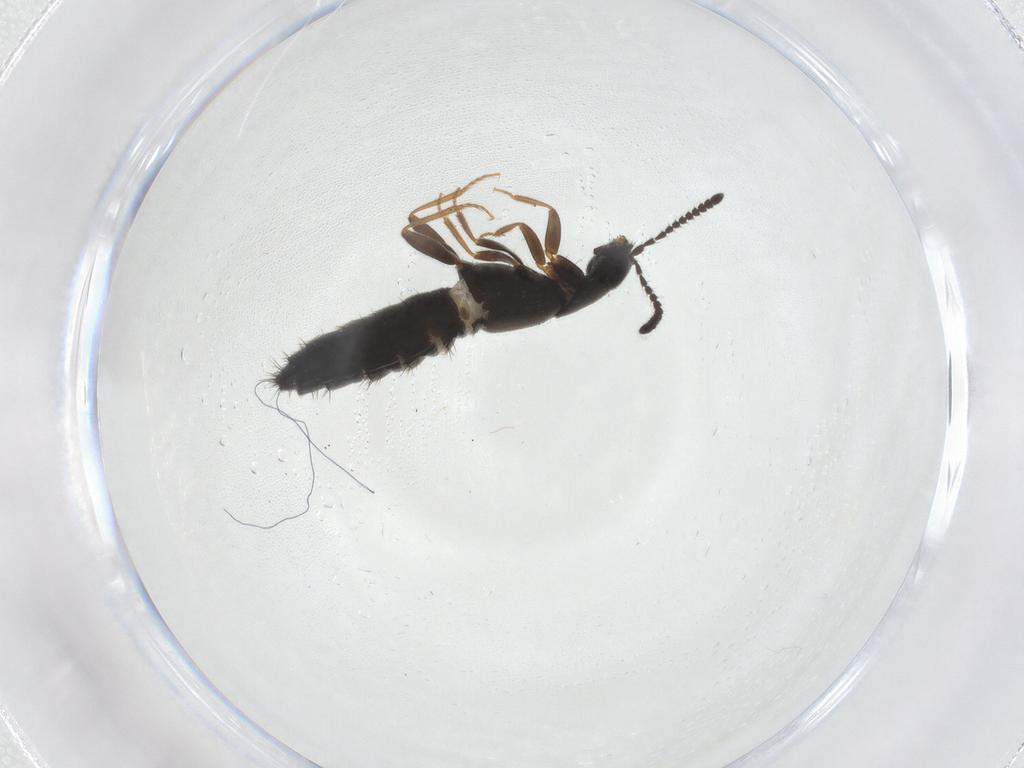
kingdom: Animalia
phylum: Arthropoda
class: Insecta
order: Coleoptera
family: Staphylinidae
